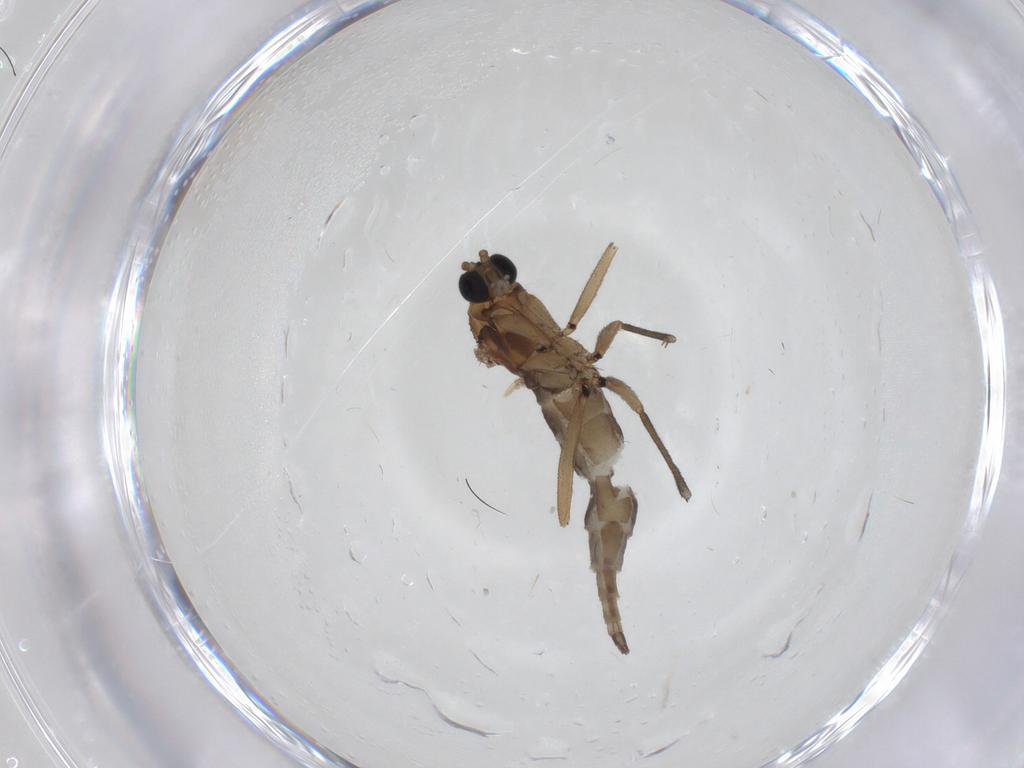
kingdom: Animalia
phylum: Arthropoda
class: Insecta
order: Diptera
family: Sciaridae
